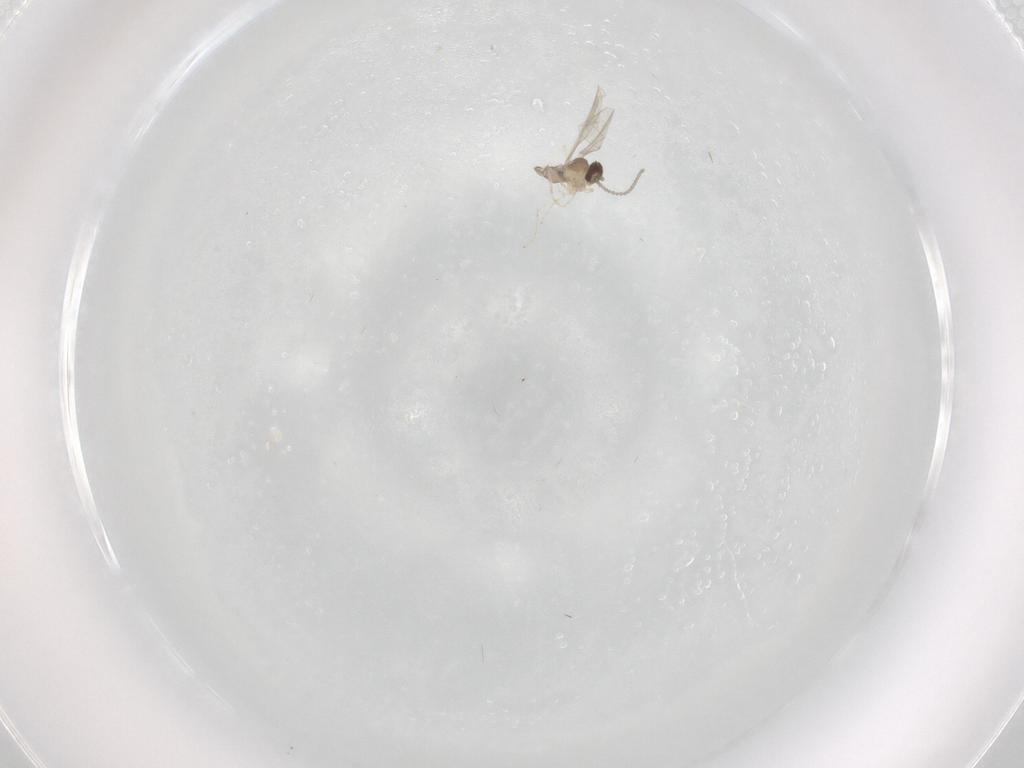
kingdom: Animalia
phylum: Arthropoda
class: Insecta
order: Diptera
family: Cecidomyiidae
